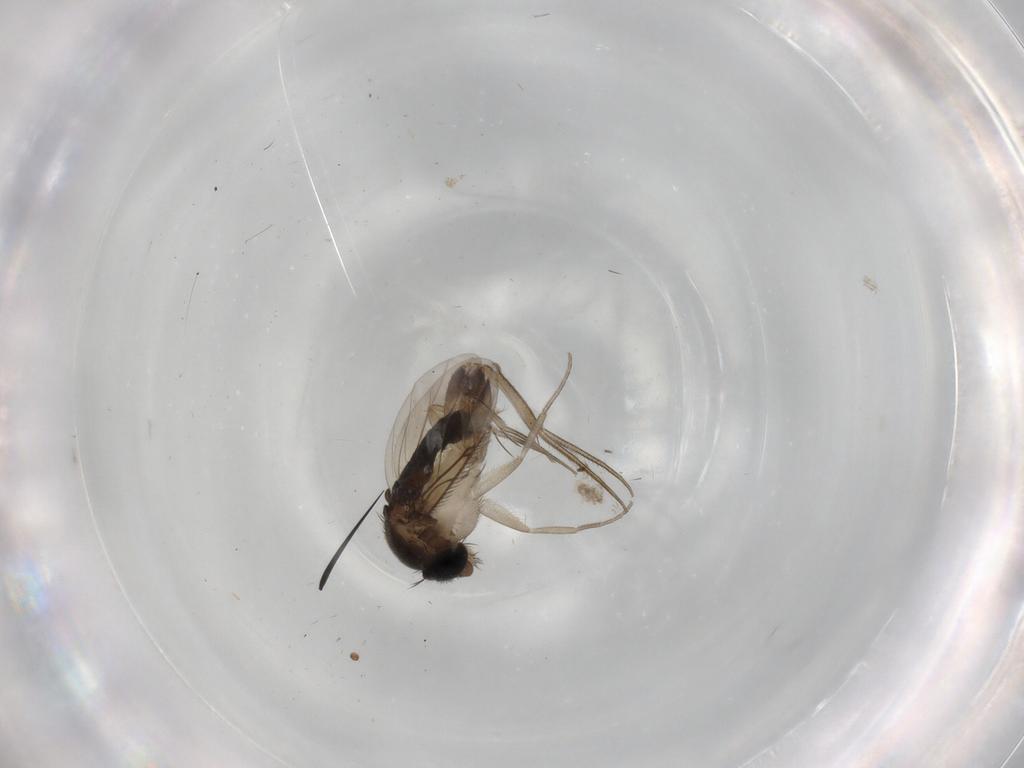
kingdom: Animalia
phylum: Arthropoda
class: Insecta
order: Diptera
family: Phoridae
